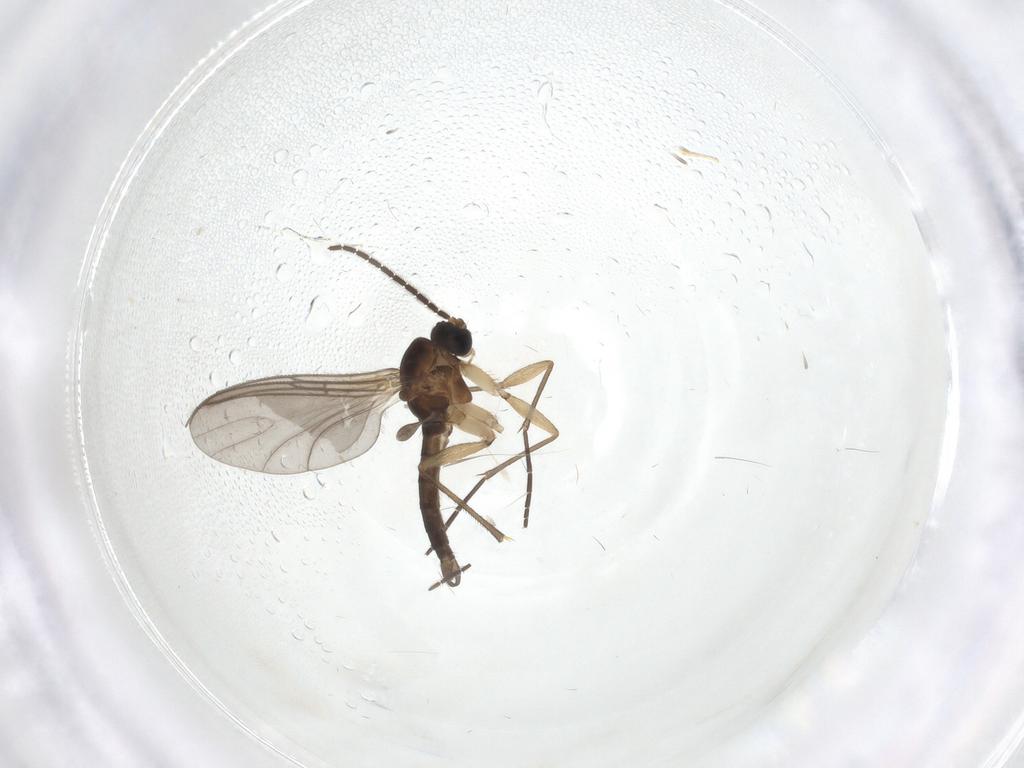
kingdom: Animalia
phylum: Arthropoda
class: Insecta
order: Diptera
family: Sciaridae
